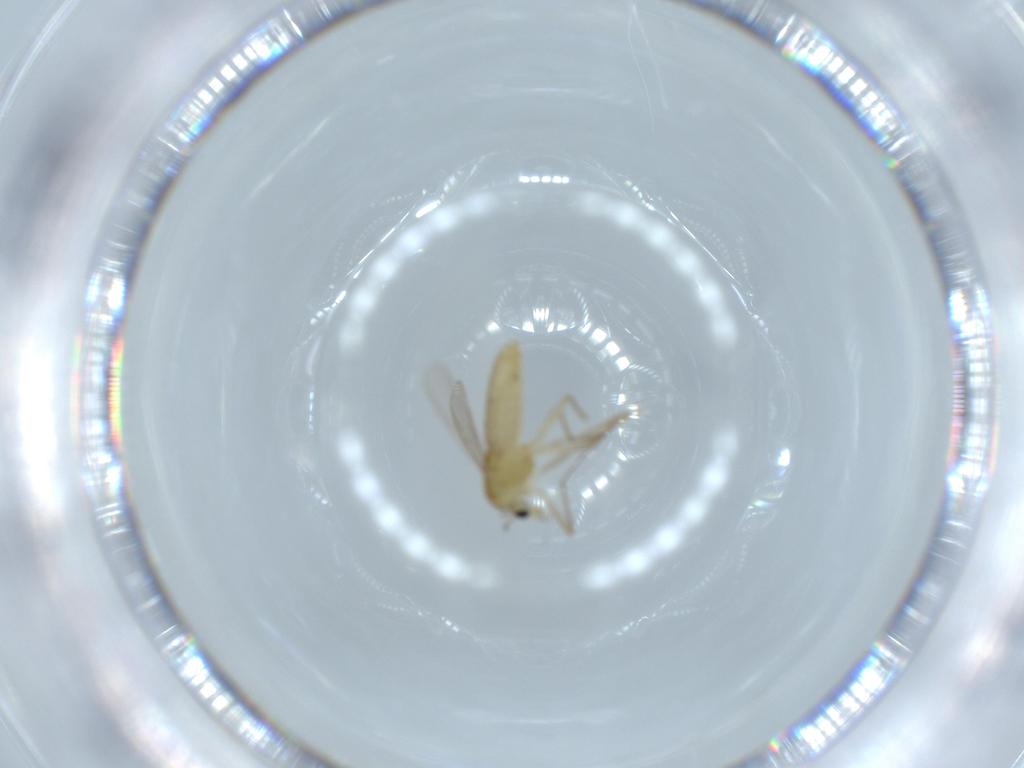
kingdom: Animalia
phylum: Arthropoda
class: Insecta
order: Diptera
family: Chironomidae
